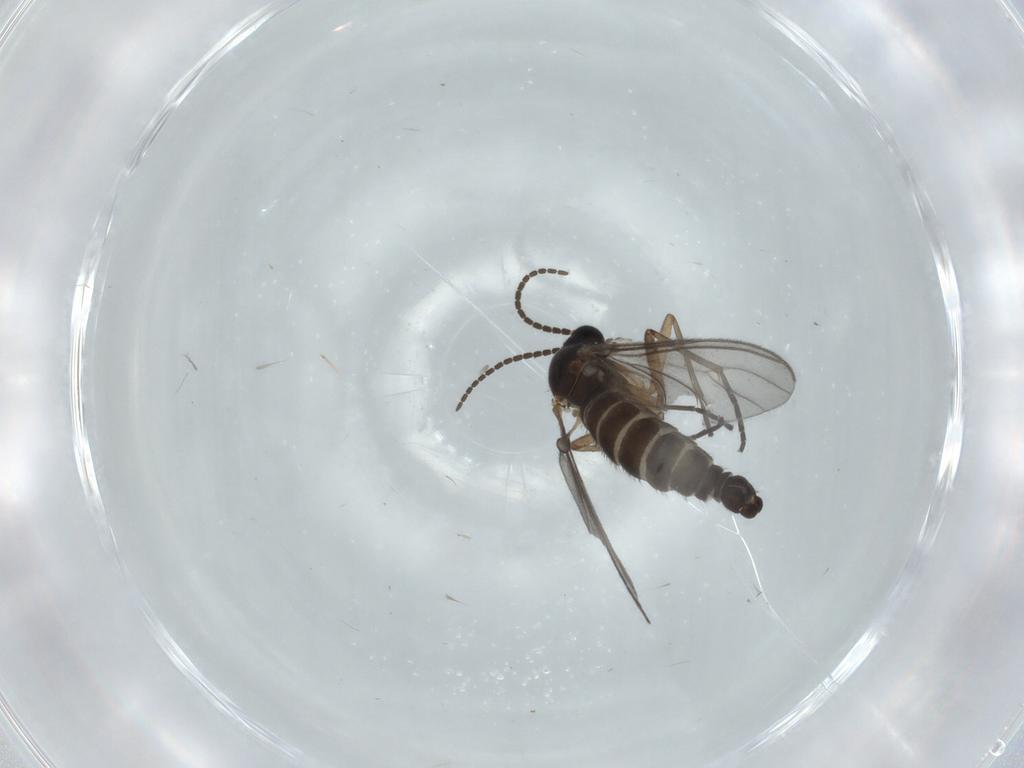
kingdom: Animalia
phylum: Arthropoda
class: Insecta
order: Diptera
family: Sciaridae
